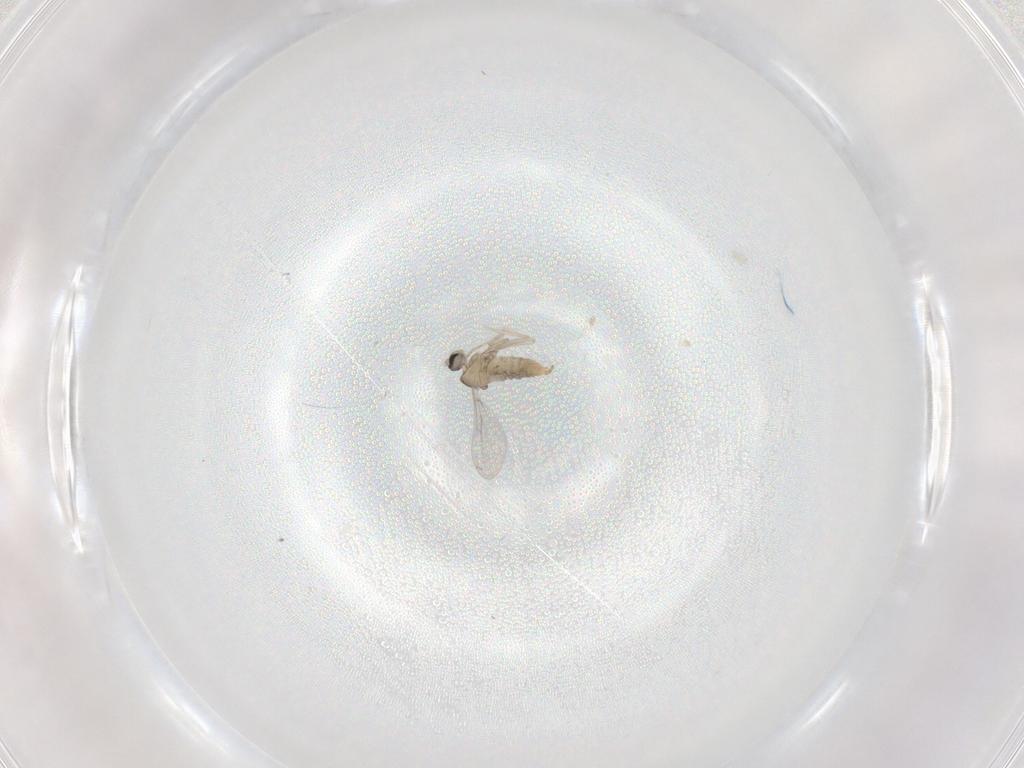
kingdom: Animalia
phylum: Arthropoda
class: Insecta
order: Diptera
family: Cecidomyiidae
